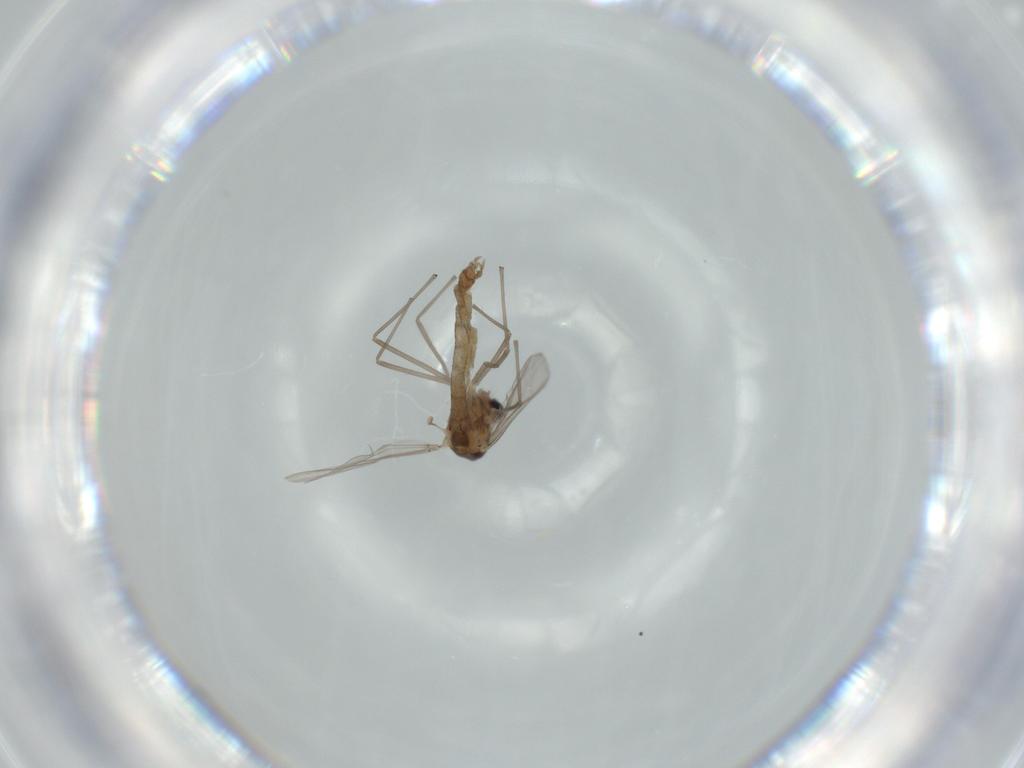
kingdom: Animalia
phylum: Arthropoda
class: Insecta
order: Diptera
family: Chironomidae
